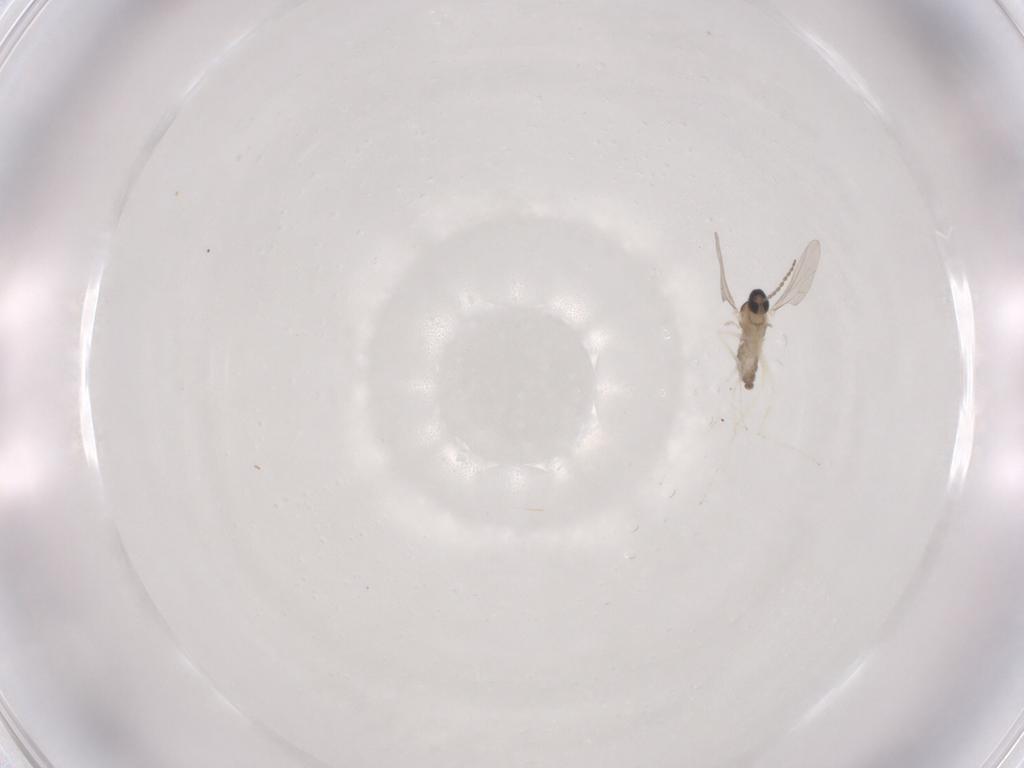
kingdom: Animalia
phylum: Arthropoda
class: Insecta
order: Diptera
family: Cecidomyiidae
